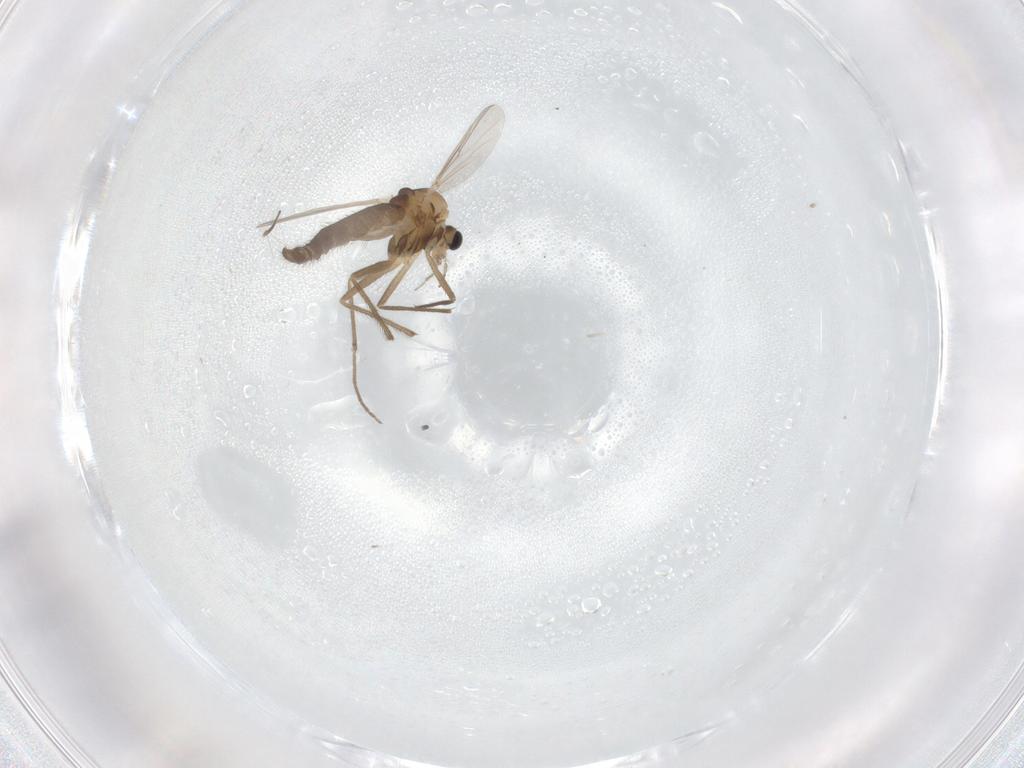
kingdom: Animalia
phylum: Arthropoda
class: Insecta
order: Diptera
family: Chironomidae
